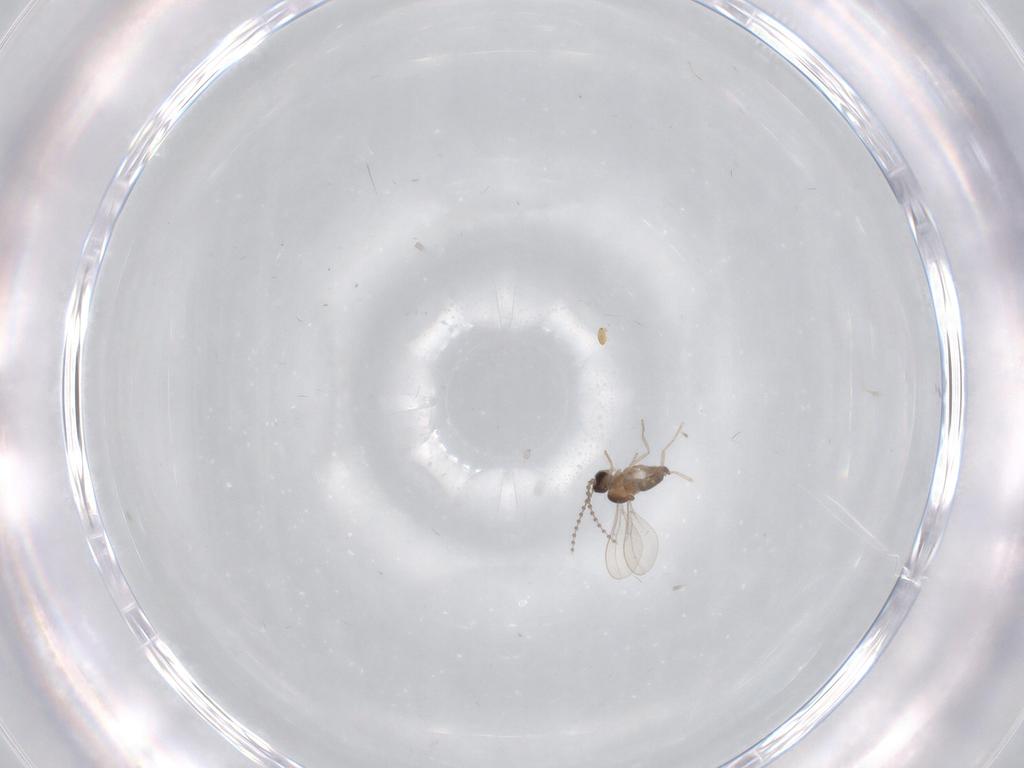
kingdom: Animalia
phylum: Arthropoda
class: Insecta
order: Diptera
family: Cecidomyiidae
